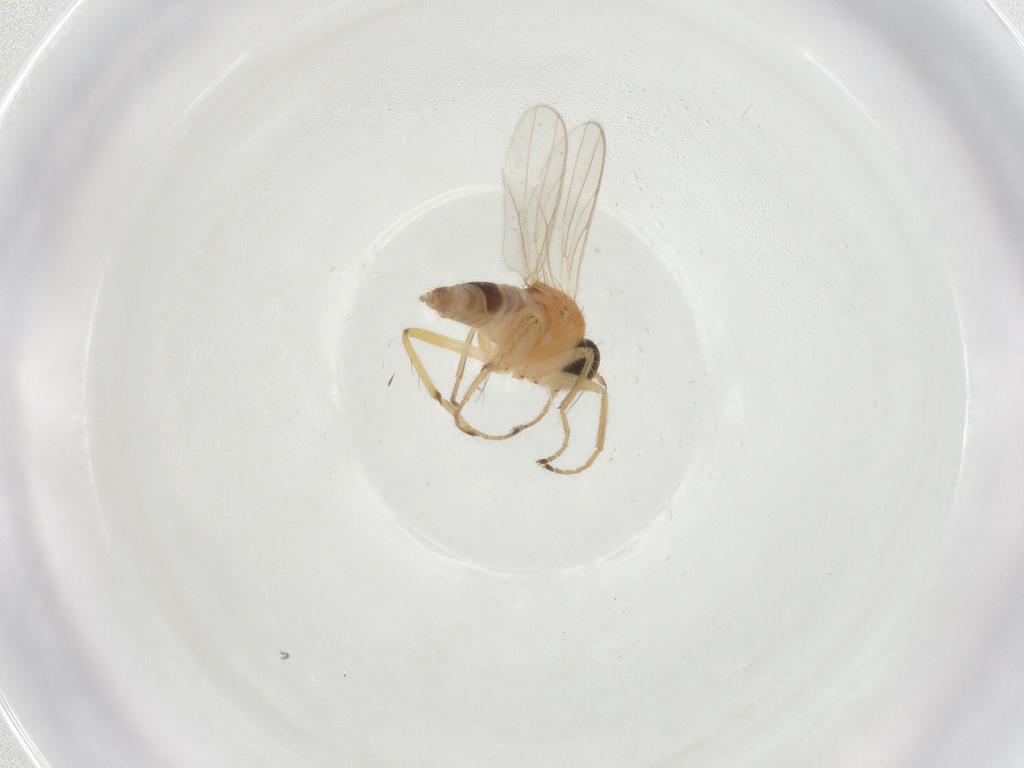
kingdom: Animalia
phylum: Arthropoda
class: Insecta
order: Diptera
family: Hybotidae
